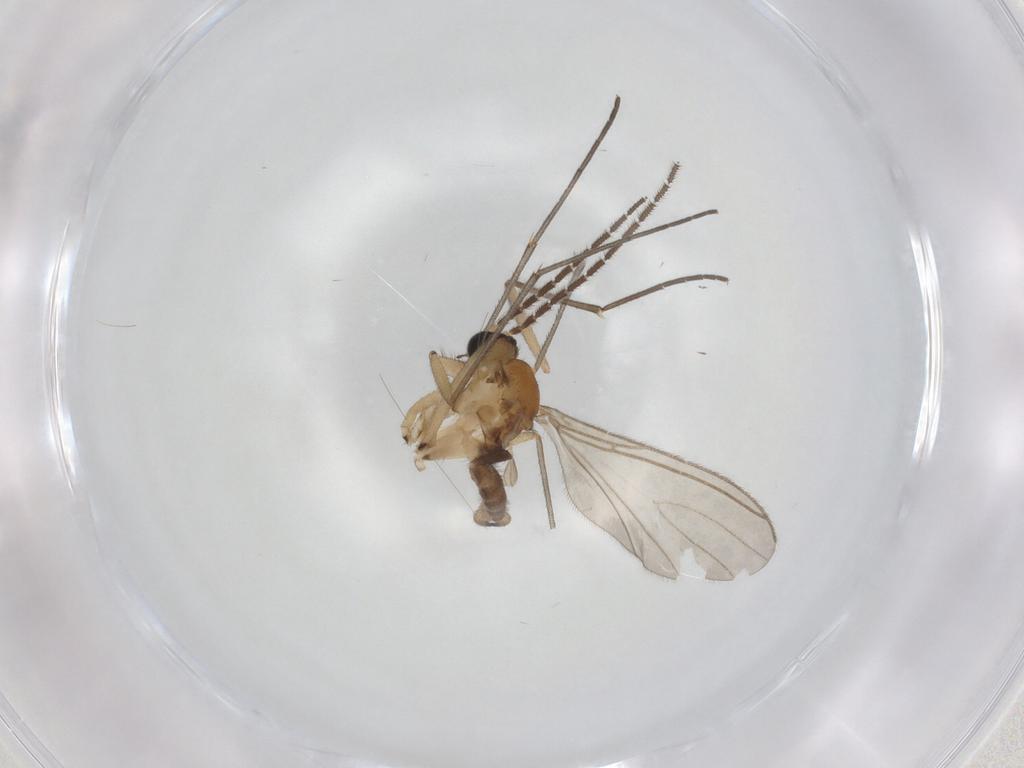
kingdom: Animalia
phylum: Arthropoda
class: Insecta
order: Diptera
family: Sciaridae
